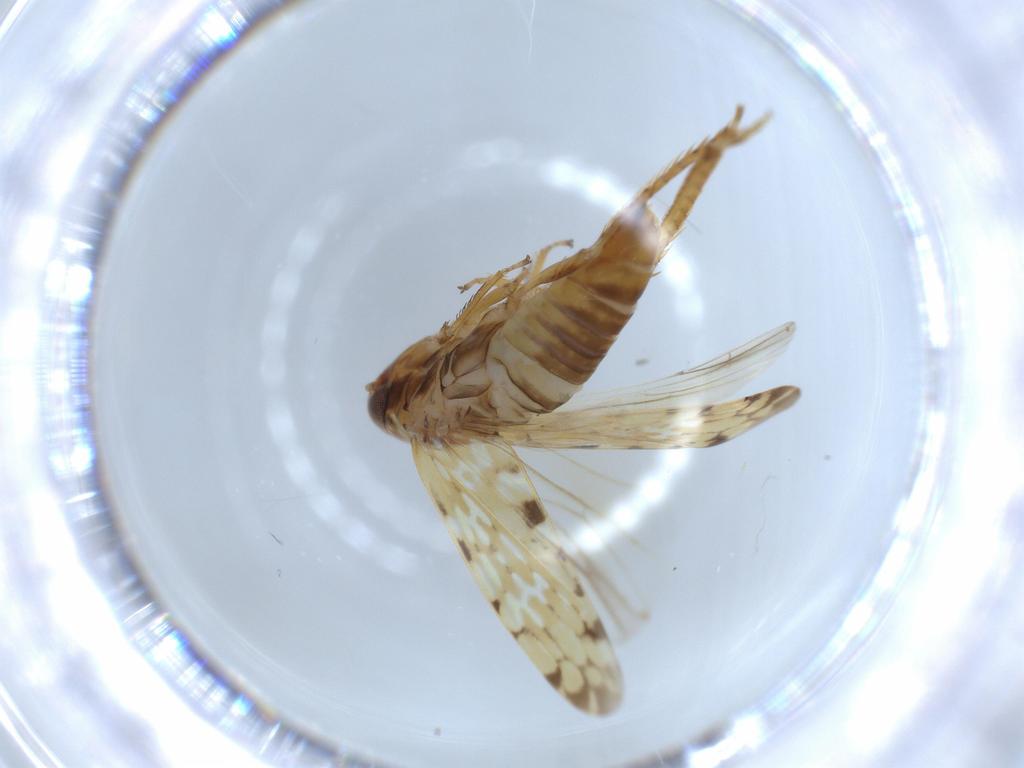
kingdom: Animalia
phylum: Arthropoda
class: Insecta
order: Hemiptera
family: Cicadellidae
